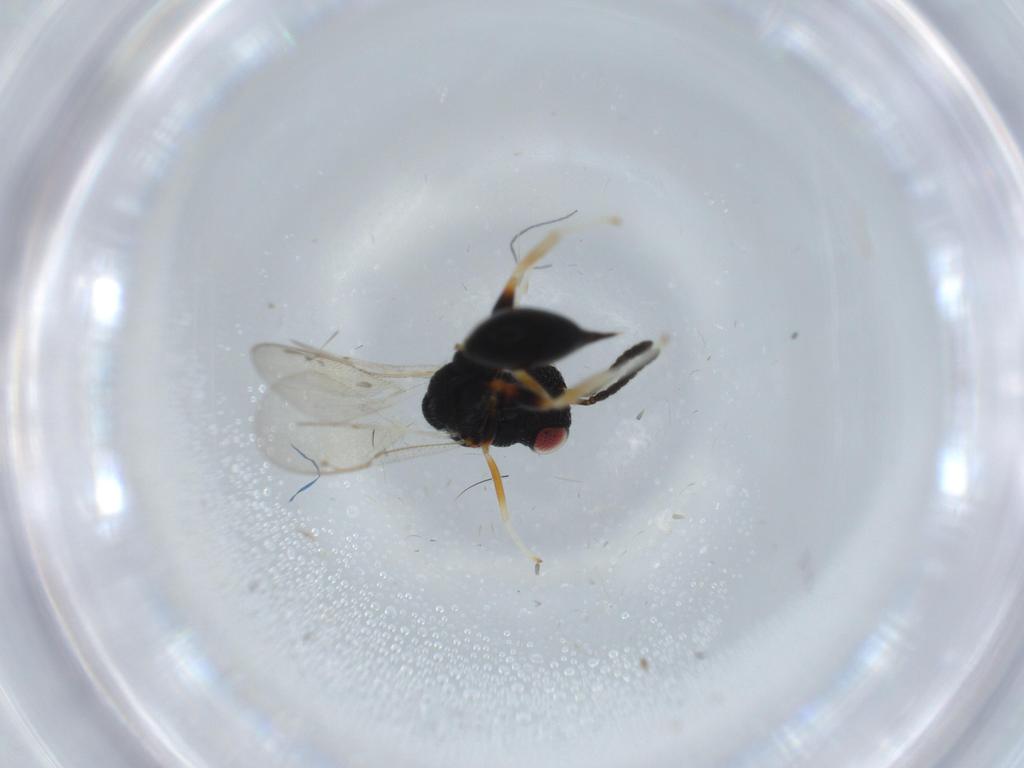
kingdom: Animalia
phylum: Arthropoda
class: Insecta
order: Hymenoptera
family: Eurytomidae
